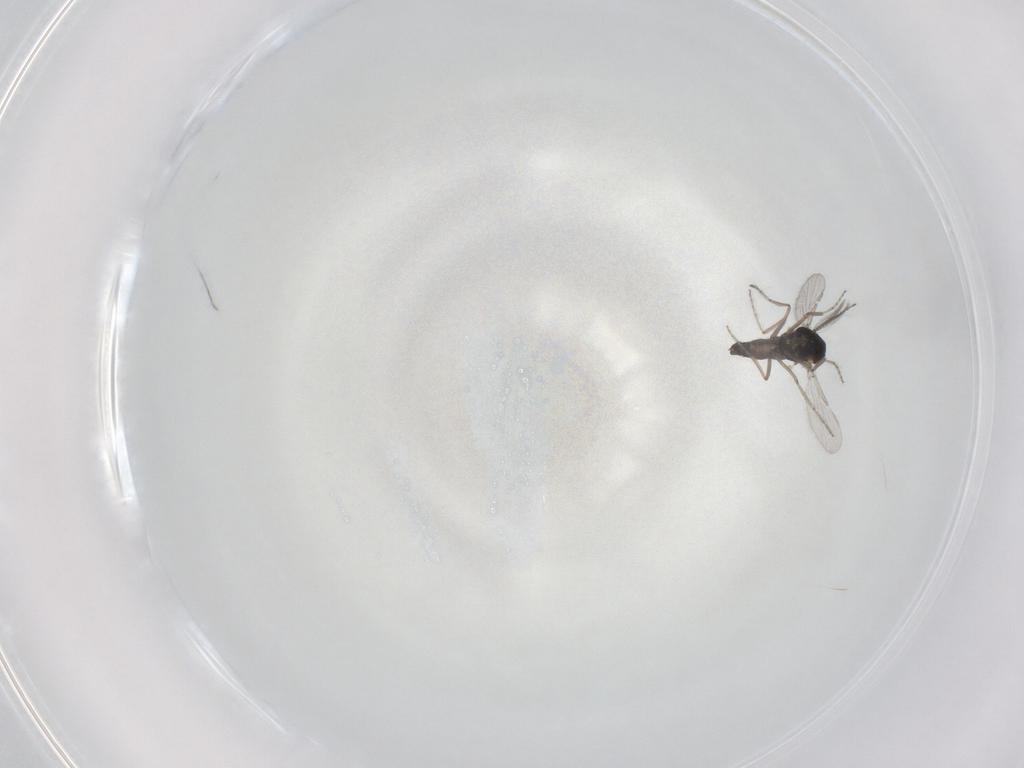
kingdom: Animalia
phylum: Arthropoda
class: Insecta
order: Diptera
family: Ceratopogonidae
